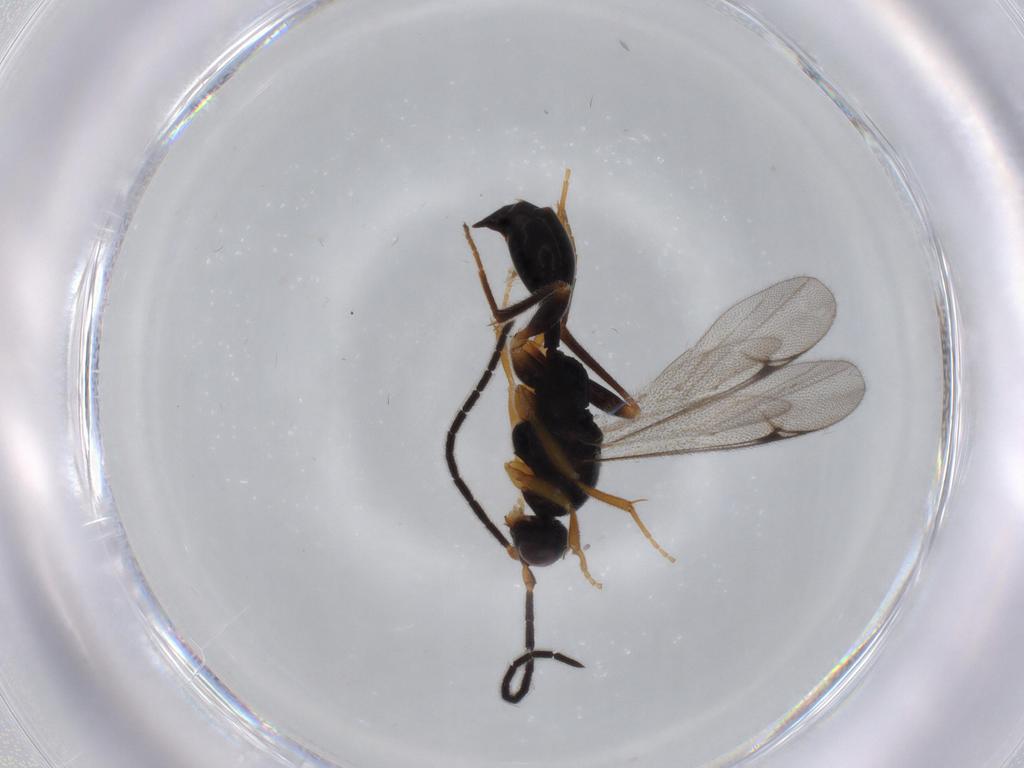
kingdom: Animalia
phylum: Arthropoda
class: Insecta
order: Hymenoptera
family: Proctotrupidae
